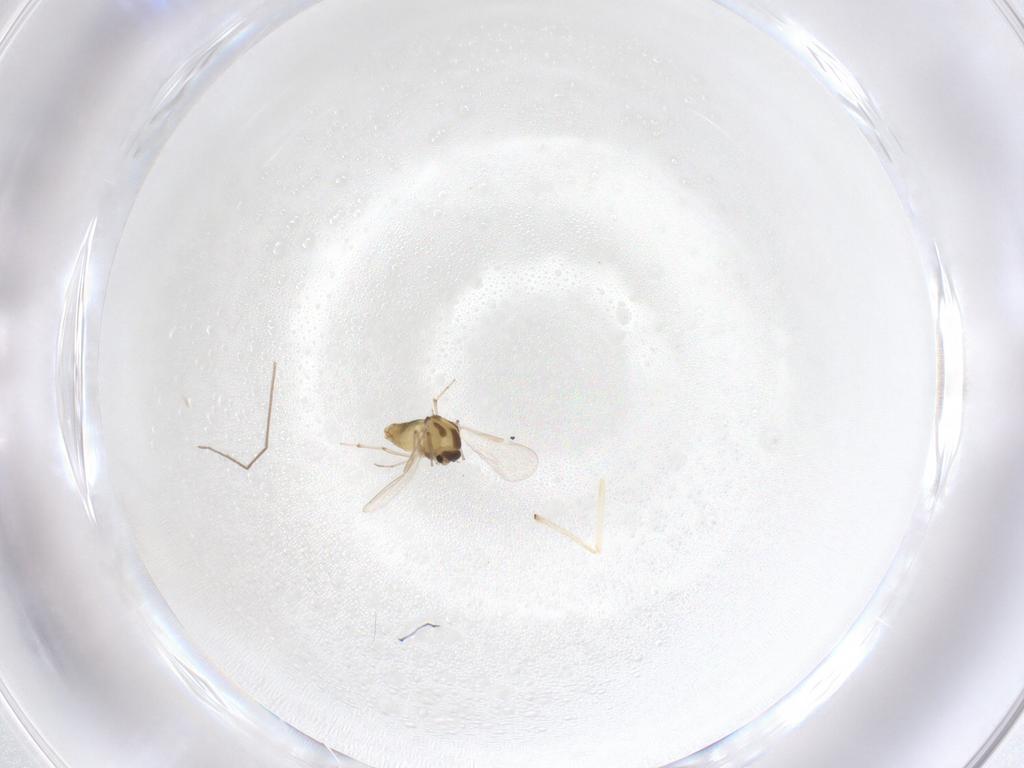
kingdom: Animalia
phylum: Arthropoda
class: Insecta
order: Diptera
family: Chironomidae
